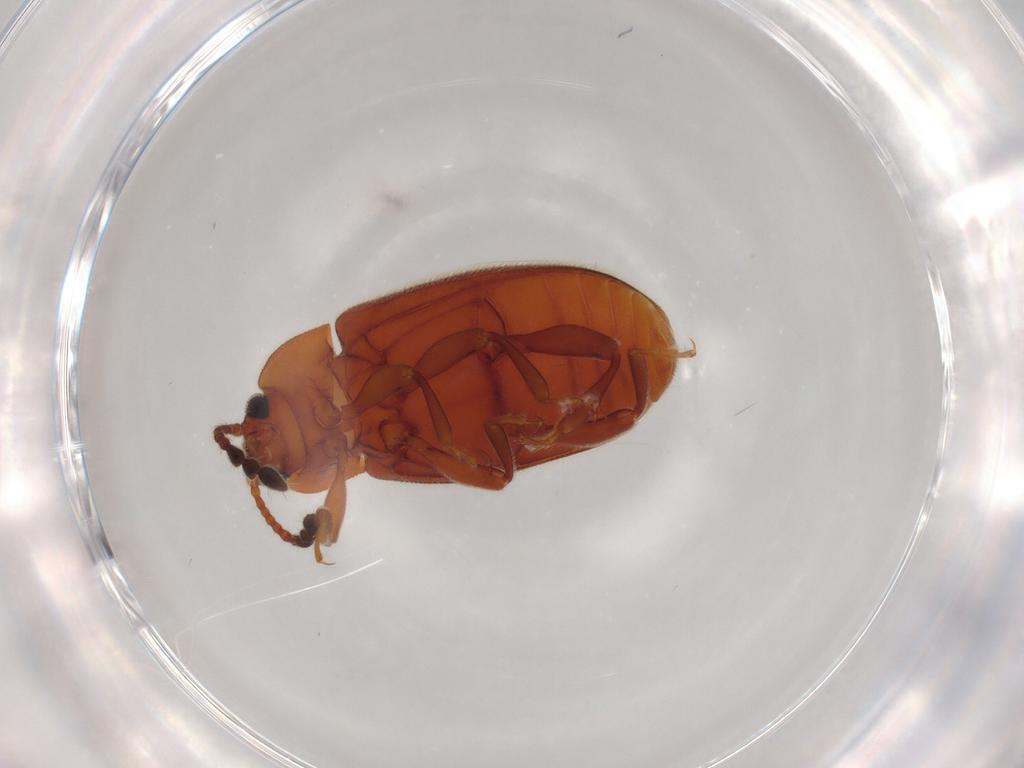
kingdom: Animalia
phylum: Arthropoda
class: Insecta
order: Coleoptera
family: Endomychidae
